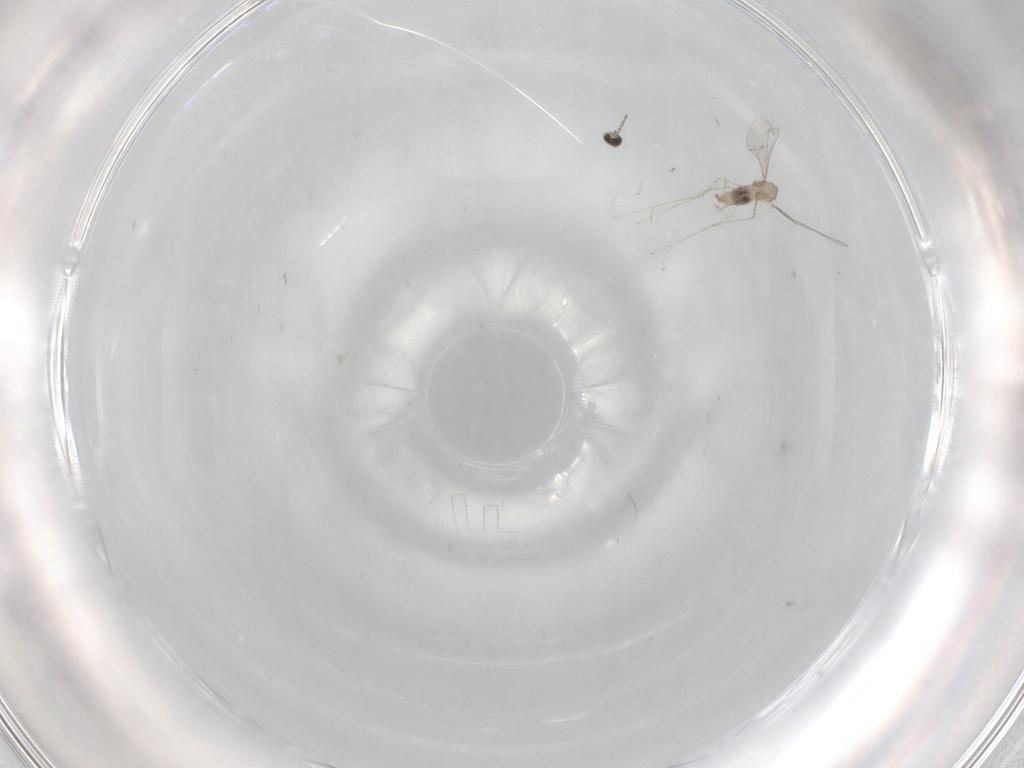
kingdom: Animalia
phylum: Arthropoda
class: Insecta
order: Diptera
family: Cecidomyiidae
